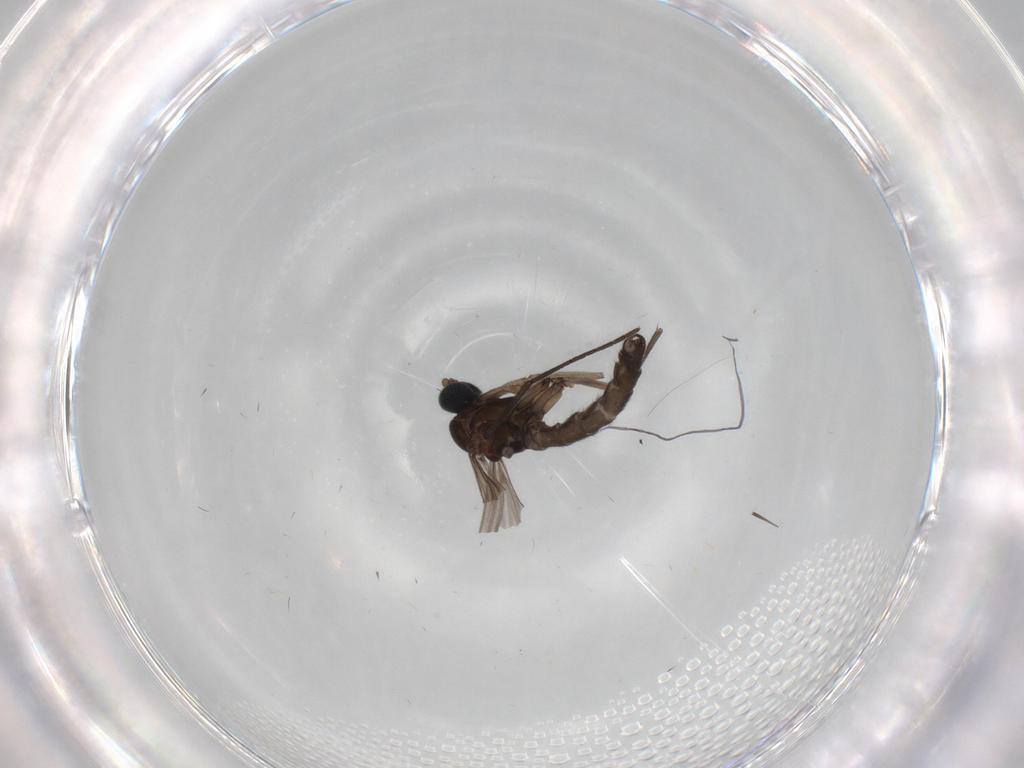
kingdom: Animalia
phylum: Arthropoda
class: Insecta
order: Diptera
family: Sciaridae
